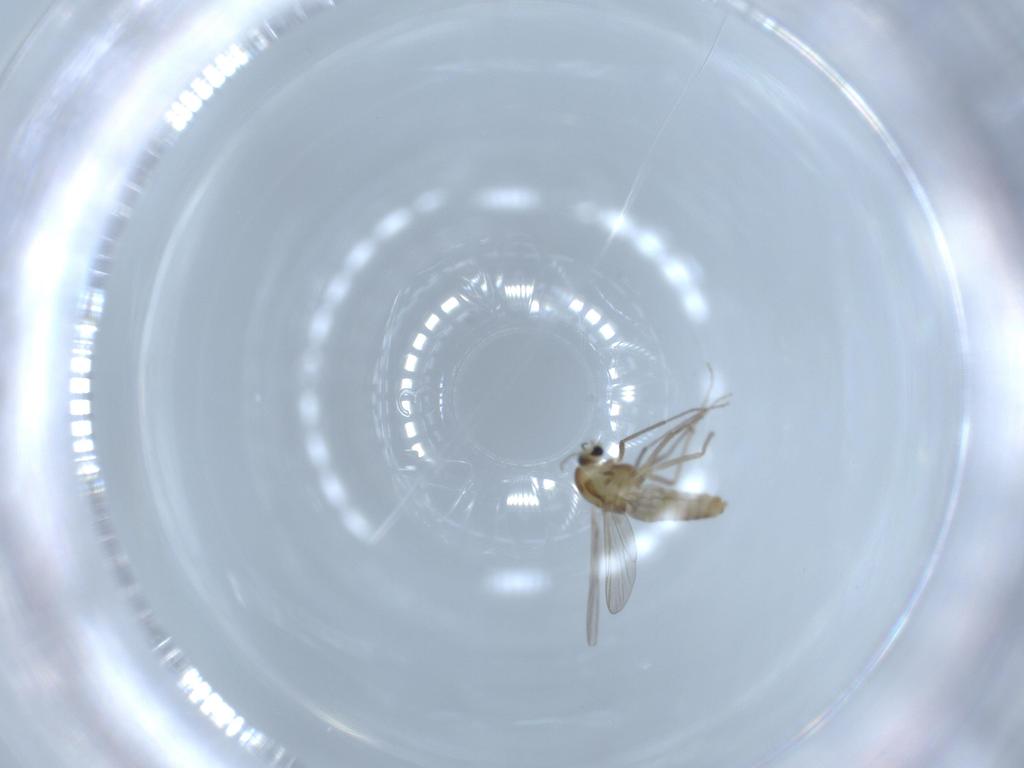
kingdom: Animalia
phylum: Arthropoda
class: Insecta
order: Diptera
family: Chironomidae
